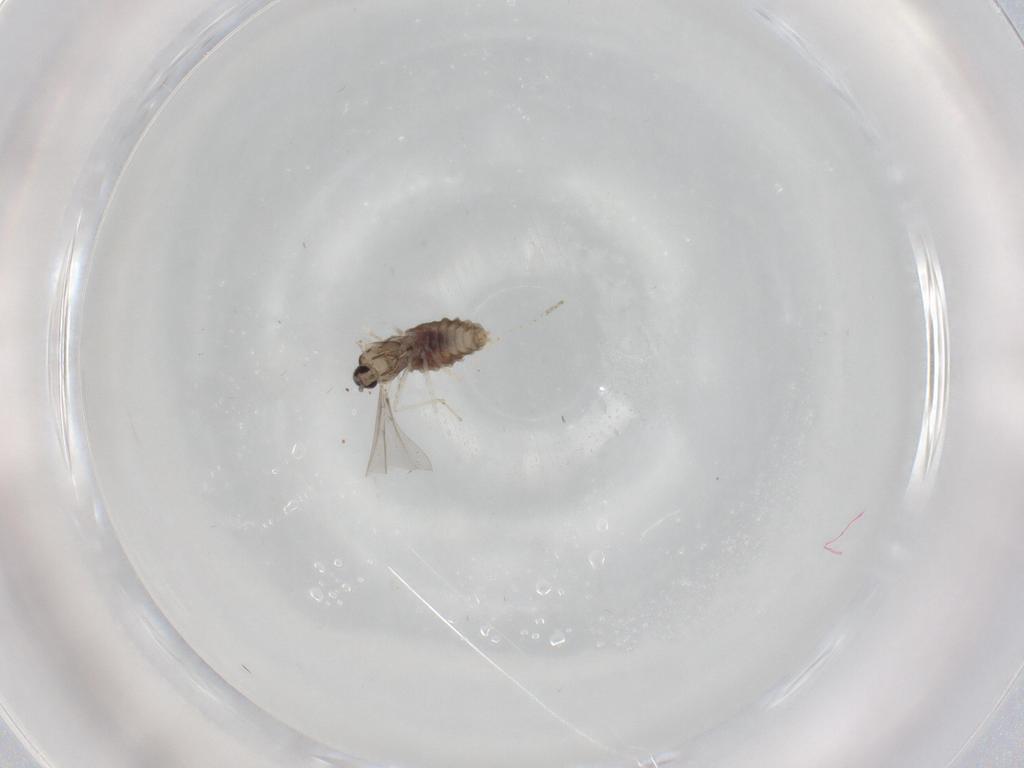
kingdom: Animalia
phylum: Arthropoda
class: Insecta
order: Diptera
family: Cecidomyiidae
